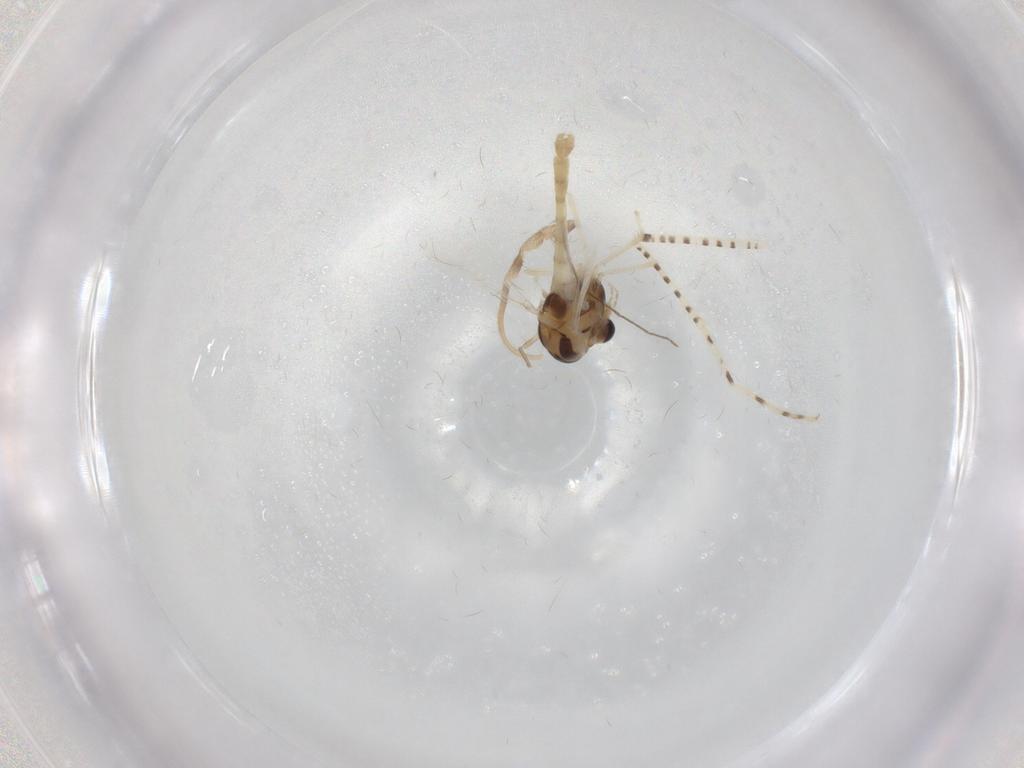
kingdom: Animalia
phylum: Arthropoda
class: Insecta
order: Diptera
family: Chironomidae
